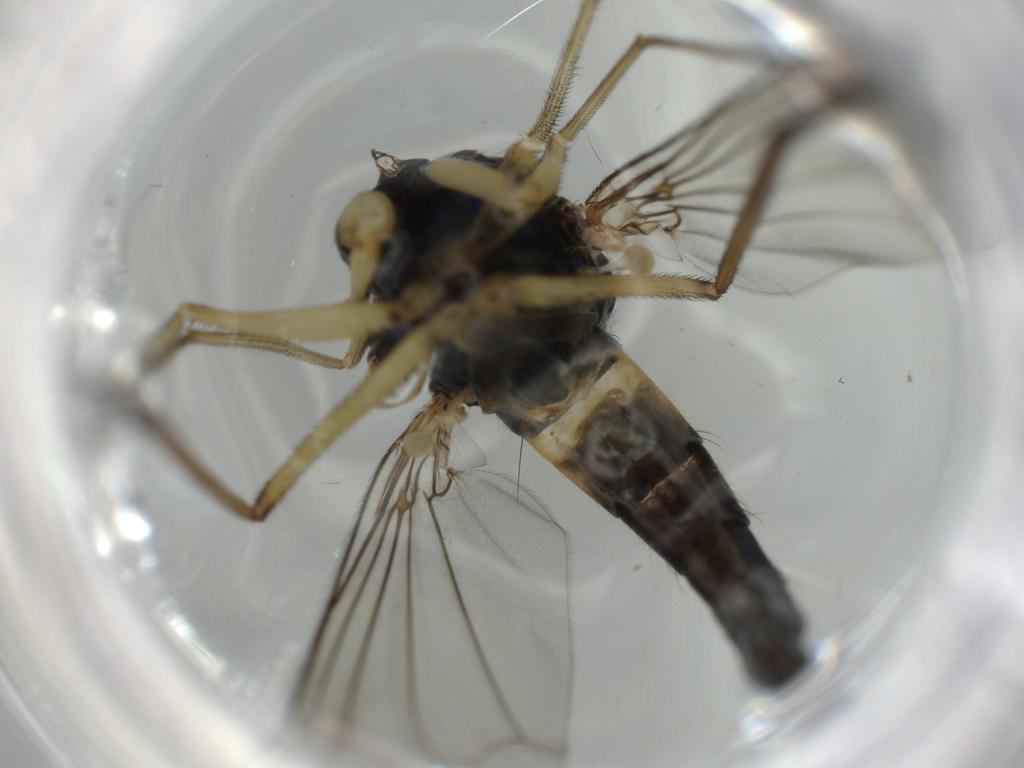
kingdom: Animalia
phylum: Arthropoda
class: Insecta
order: Diptera
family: Dolichopodidae
